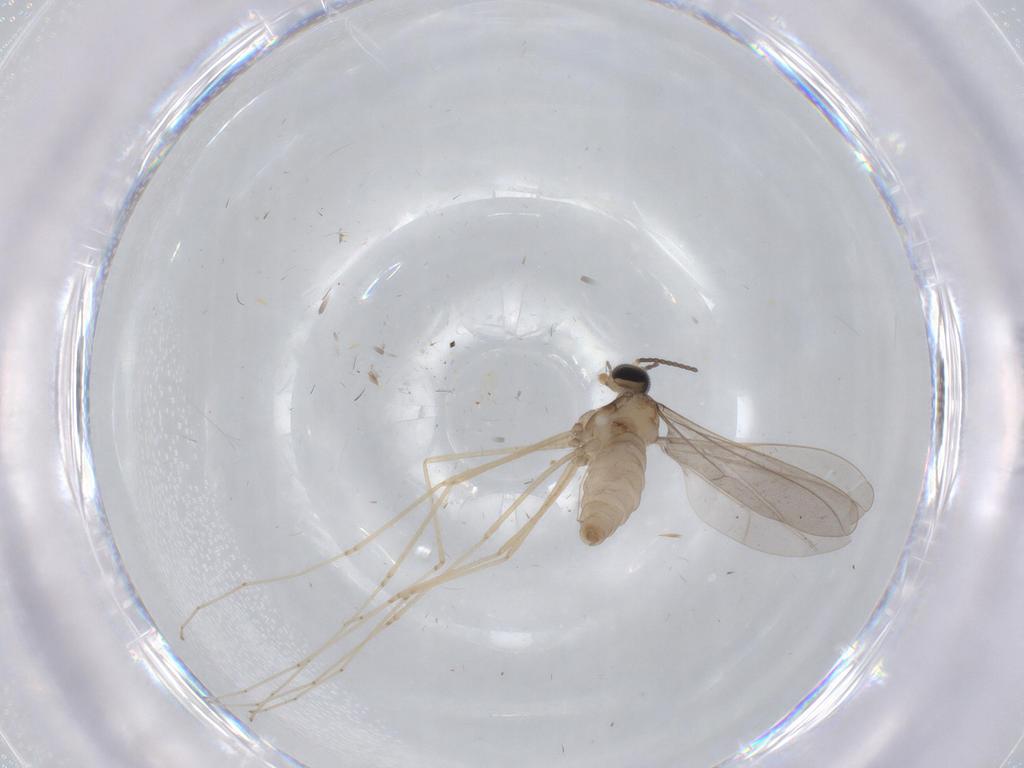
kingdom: Animalia
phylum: Arthropoda
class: Insecta
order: Diptera
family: Cecidomyiidae
